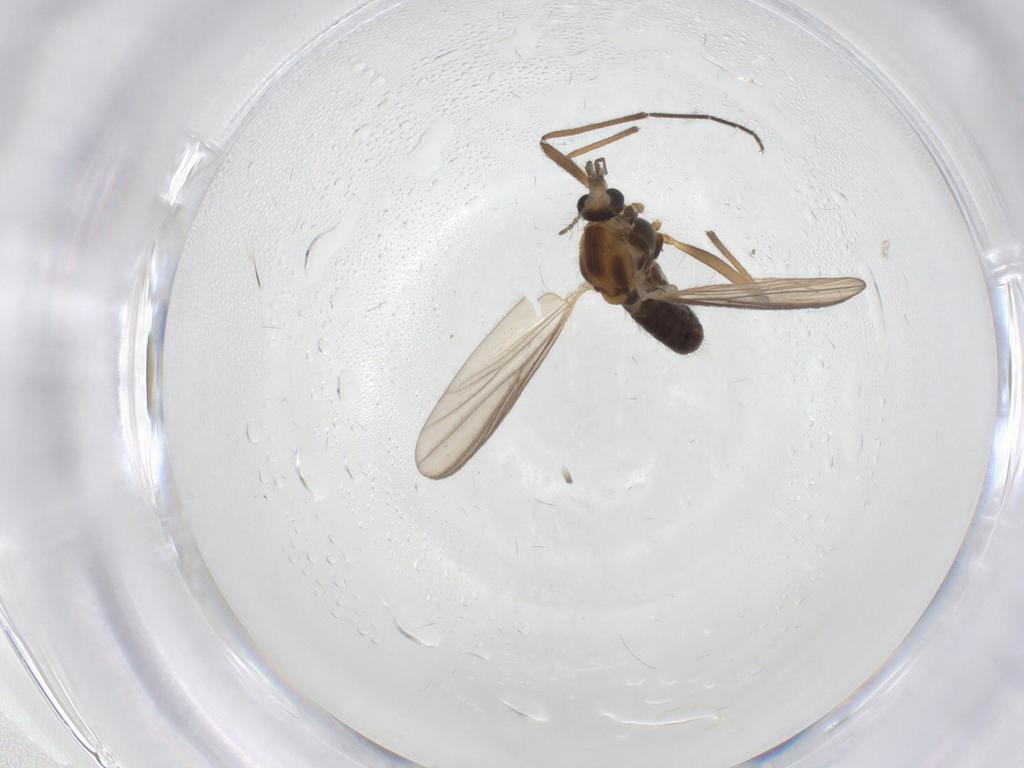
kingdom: Animalia
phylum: Arthropoda
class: Insecta
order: Diptera
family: Chironomidae
